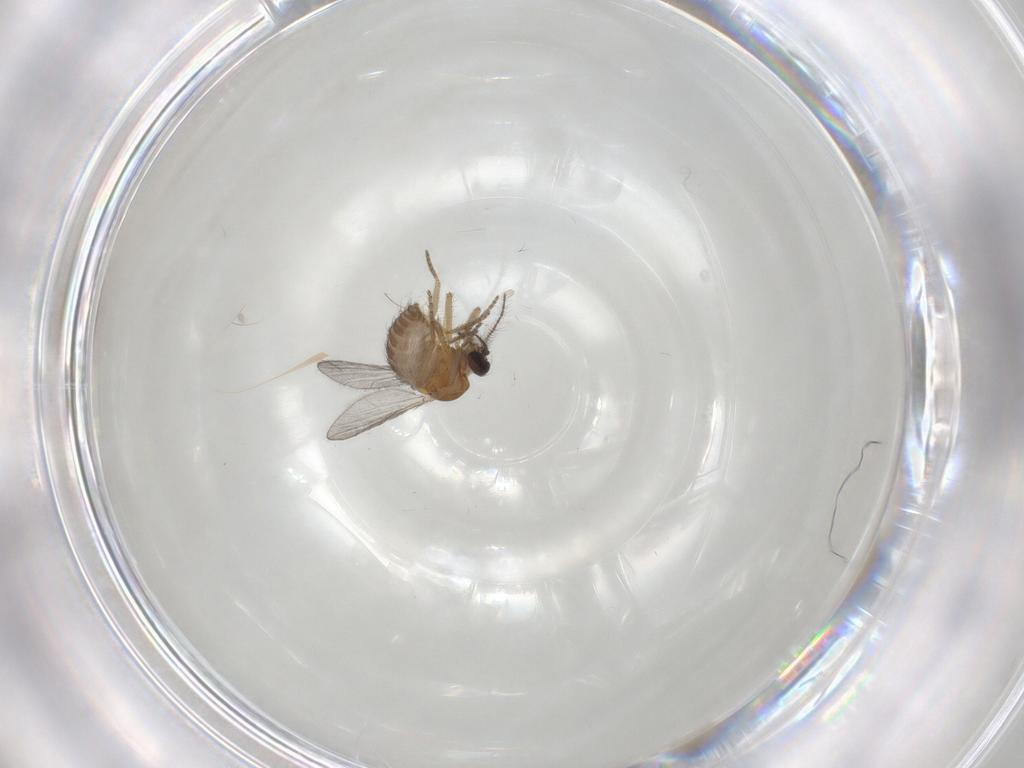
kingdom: Animalia
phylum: Arthropoda
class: Insecta
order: Diptera
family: Ceratopogonidae
